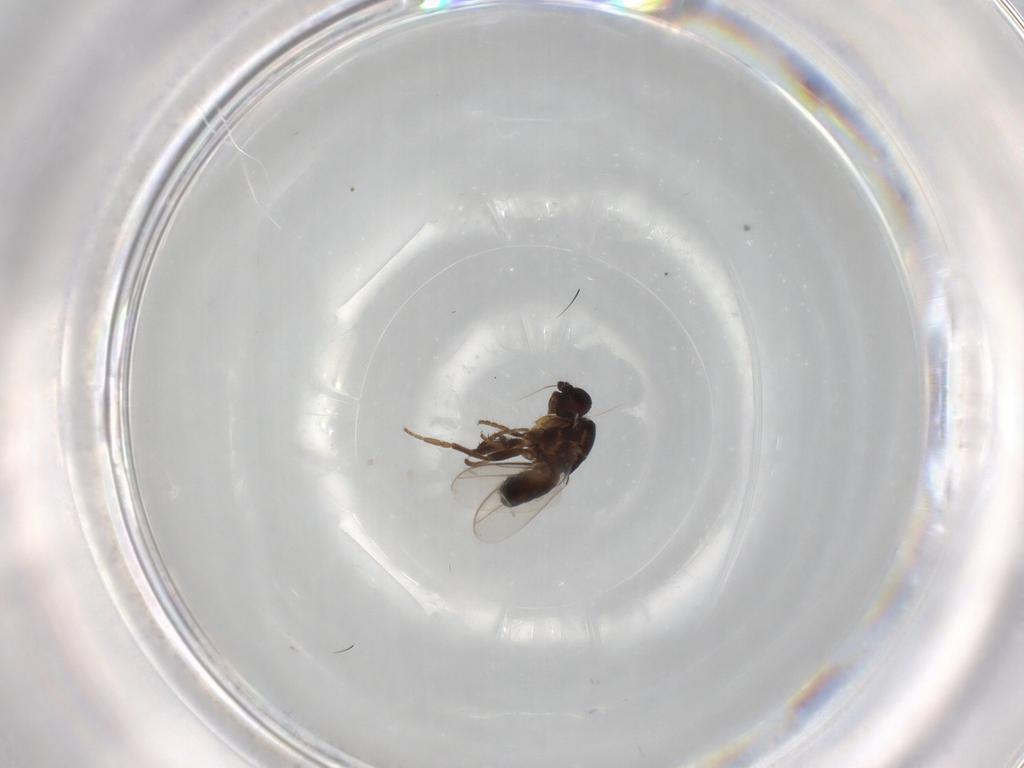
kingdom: Animalia
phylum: Arthropoda
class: Insecta
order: Diptera
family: Sphaeroceridae
